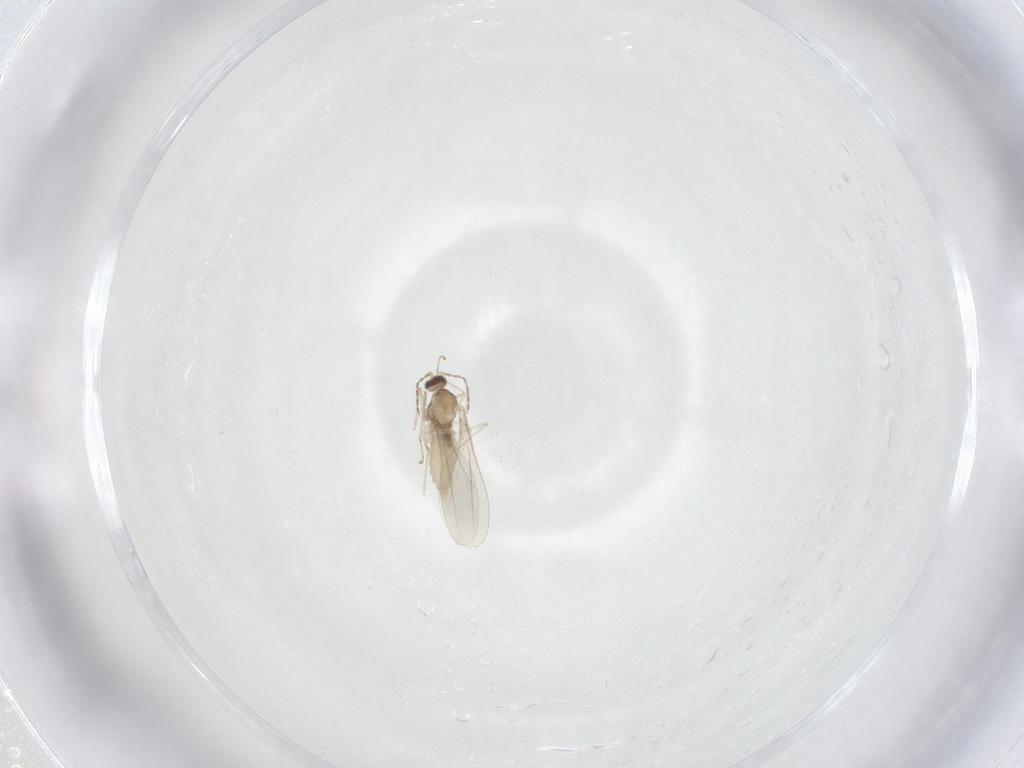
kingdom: Animalia
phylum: Arthropoda
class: Insecta
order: Diptera
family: Cecidomyiidae
